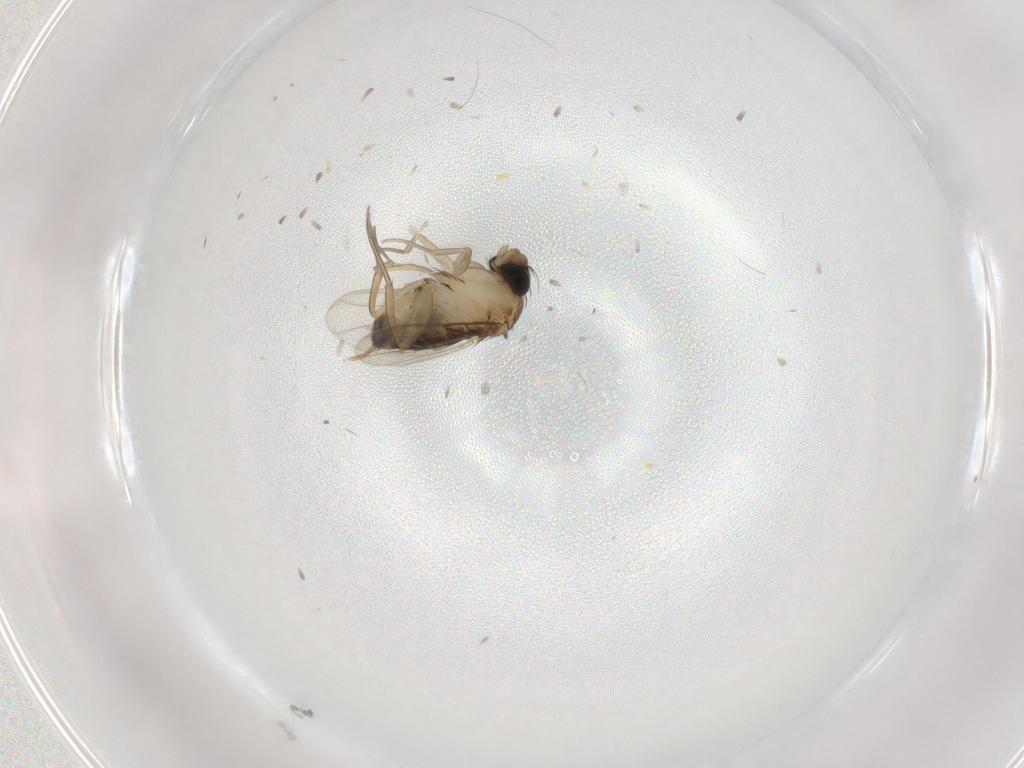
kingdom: Animalia
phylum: Arthropoda
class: Insecta
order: Diptera
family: Phoridae
